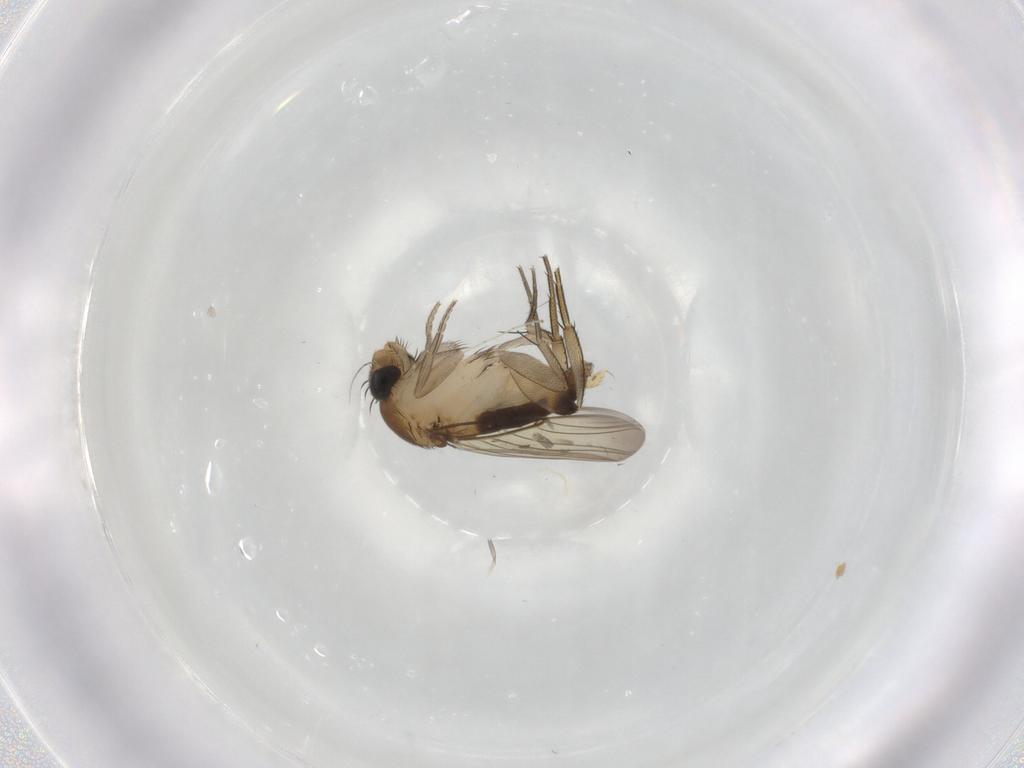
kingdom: Animalia
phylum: Arthropoda
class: Insecta
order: Diptera
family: Phoridae
